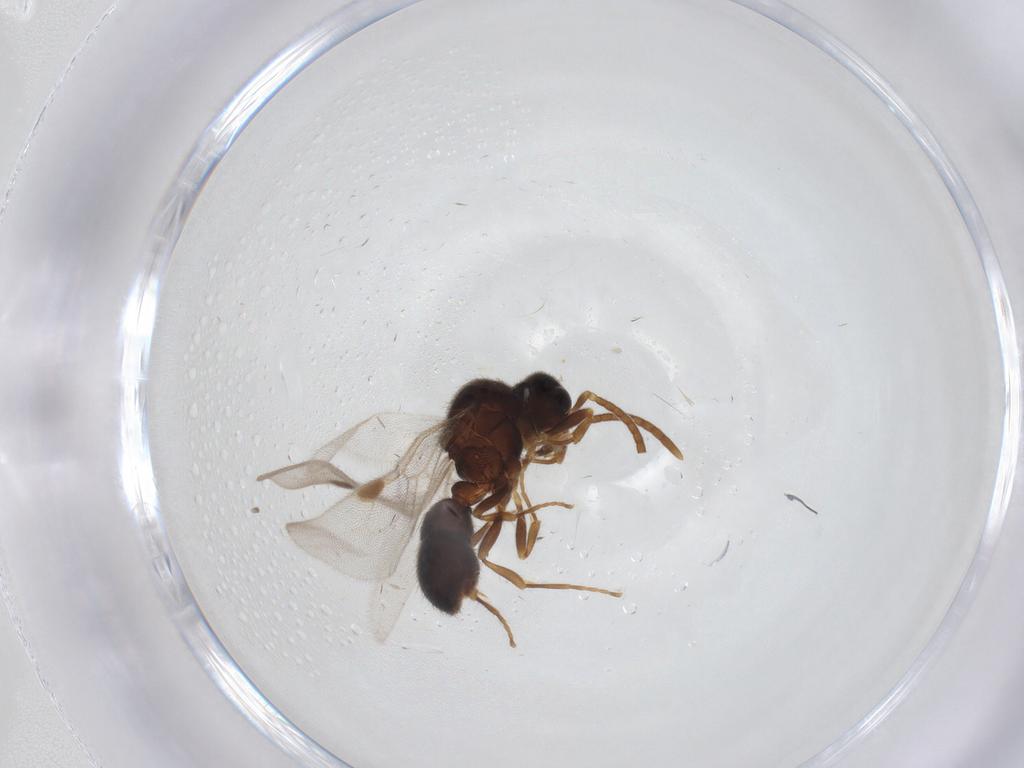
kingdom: Animalia
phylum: Arthropoda
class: Insecta
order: Hymenoptera
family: Formicidae
